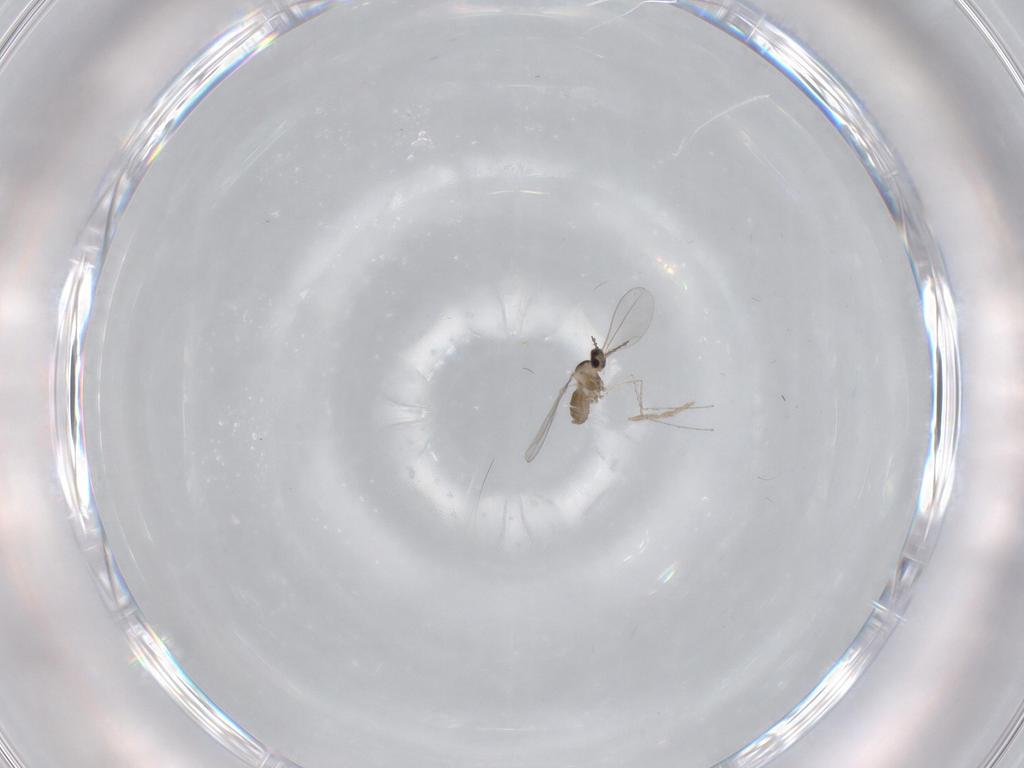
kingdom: Animalia
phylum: Arthropoda
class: Insecta
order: Diptera
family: Cecidomyiidae
